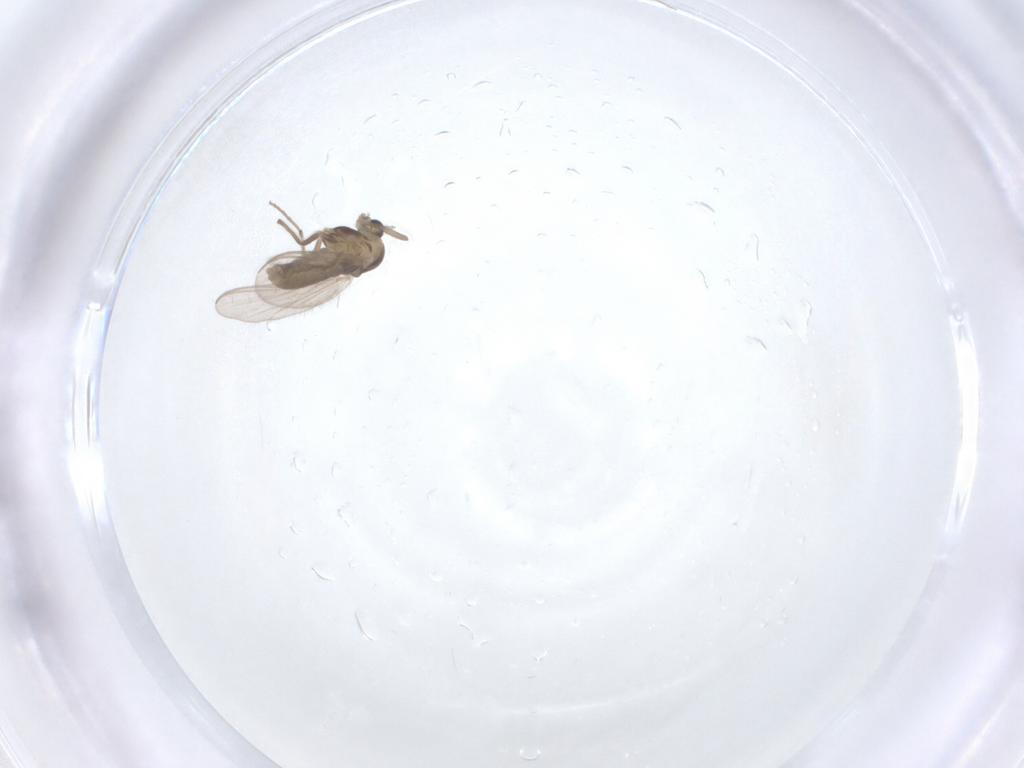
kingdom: Animalia
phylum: Arthropoda
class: Insecta
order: Diptera
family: Chironomidae
